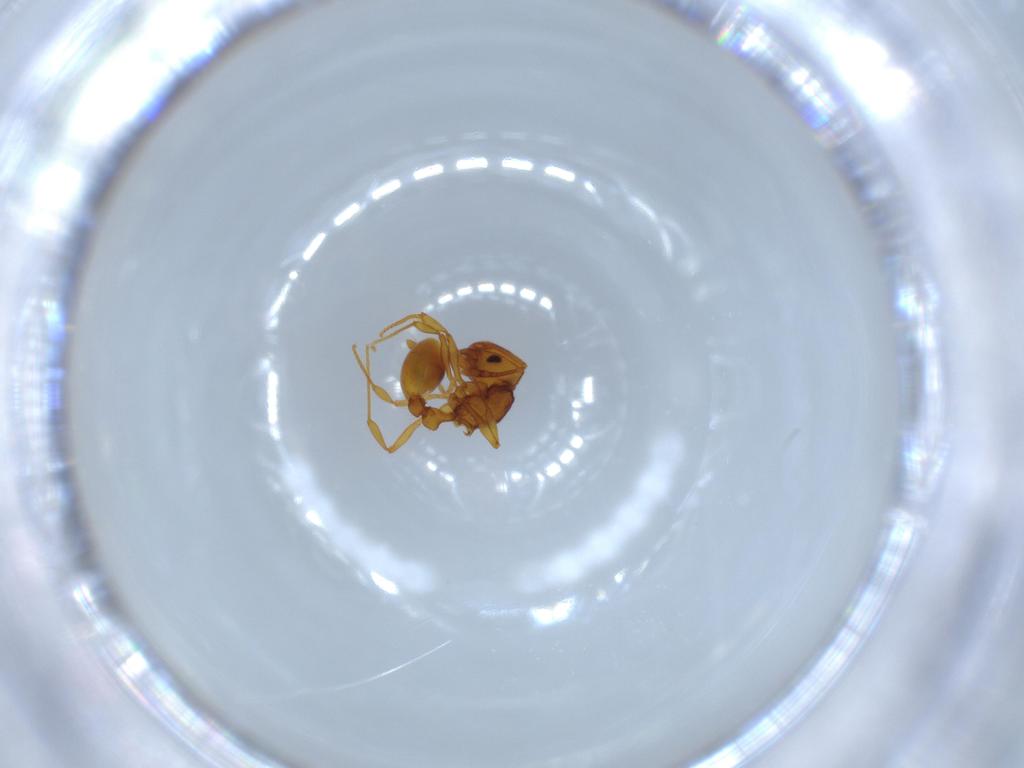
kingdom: Animalia
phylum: Arthropoda
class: Insecta
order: Hymenoptera
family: Formicidae
